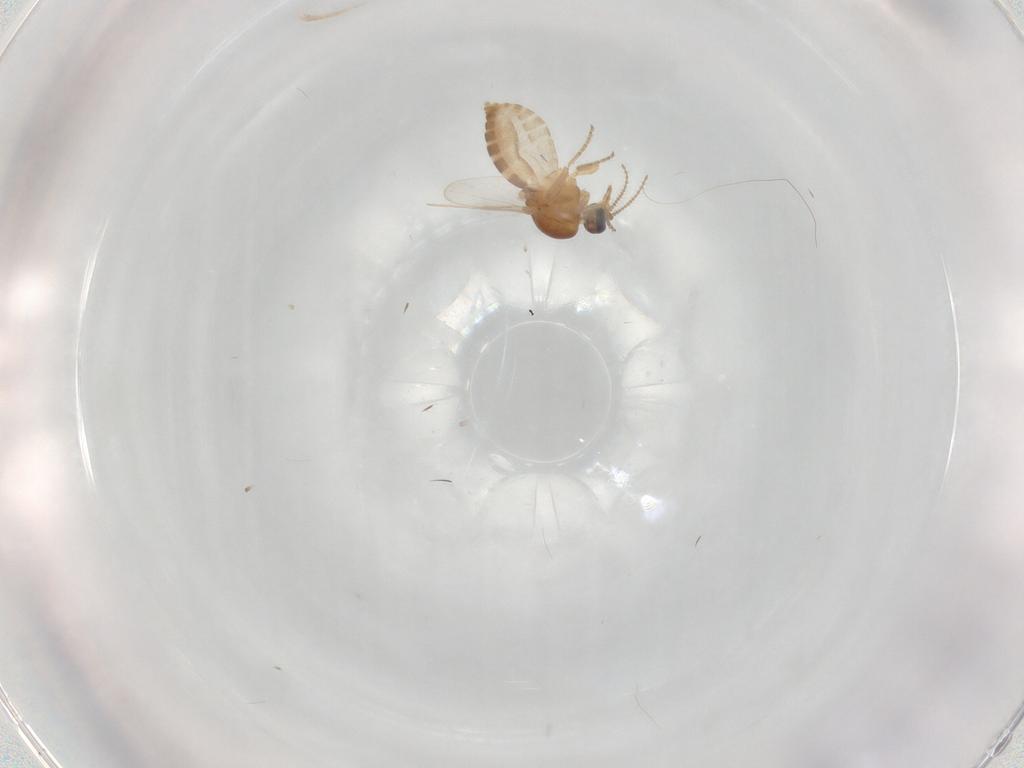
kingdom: Animalia
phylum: Arthropoda
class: Insecta
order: Diptera
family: Ceratopogonidae
